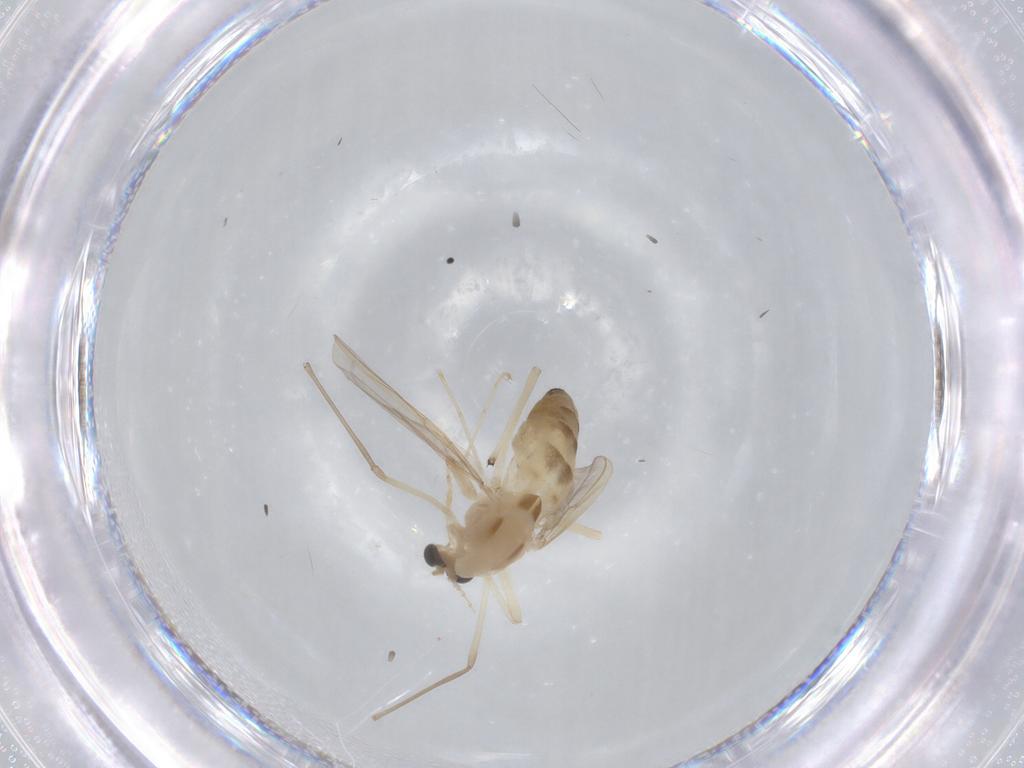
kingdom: Animalia
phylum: Arthropoda
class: Insecta
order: Diptera
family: Chironomidae
